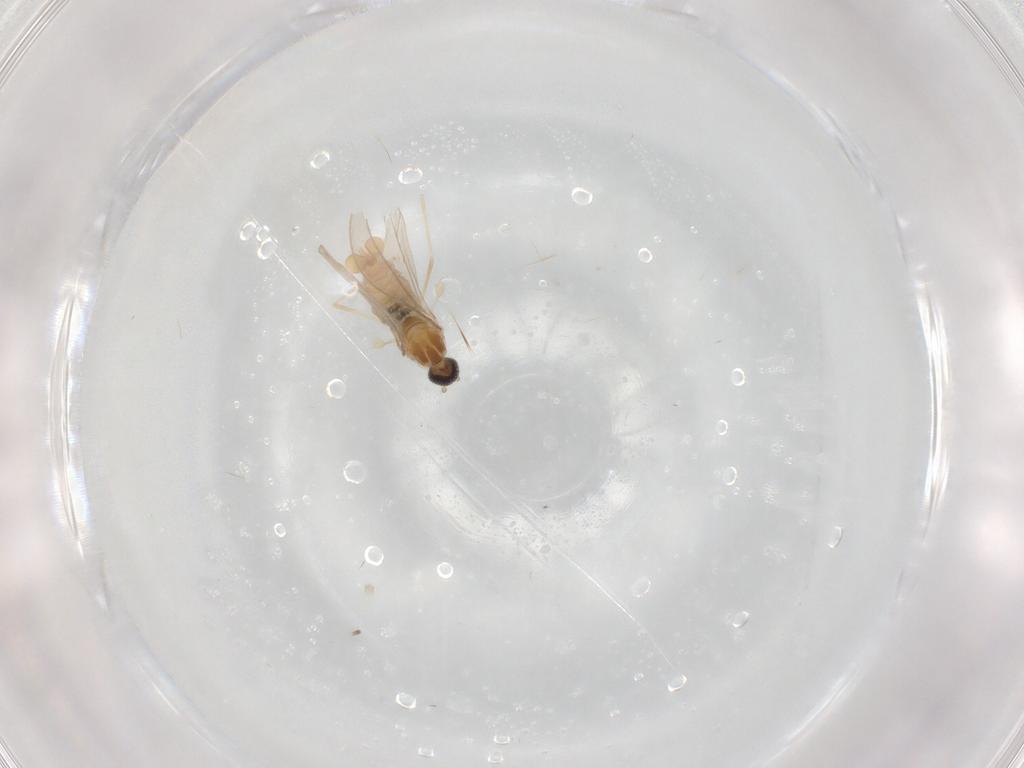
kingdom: Animalia
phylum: Arthropoda
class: Insecta
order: Diptera
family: Cecidomyiidae
